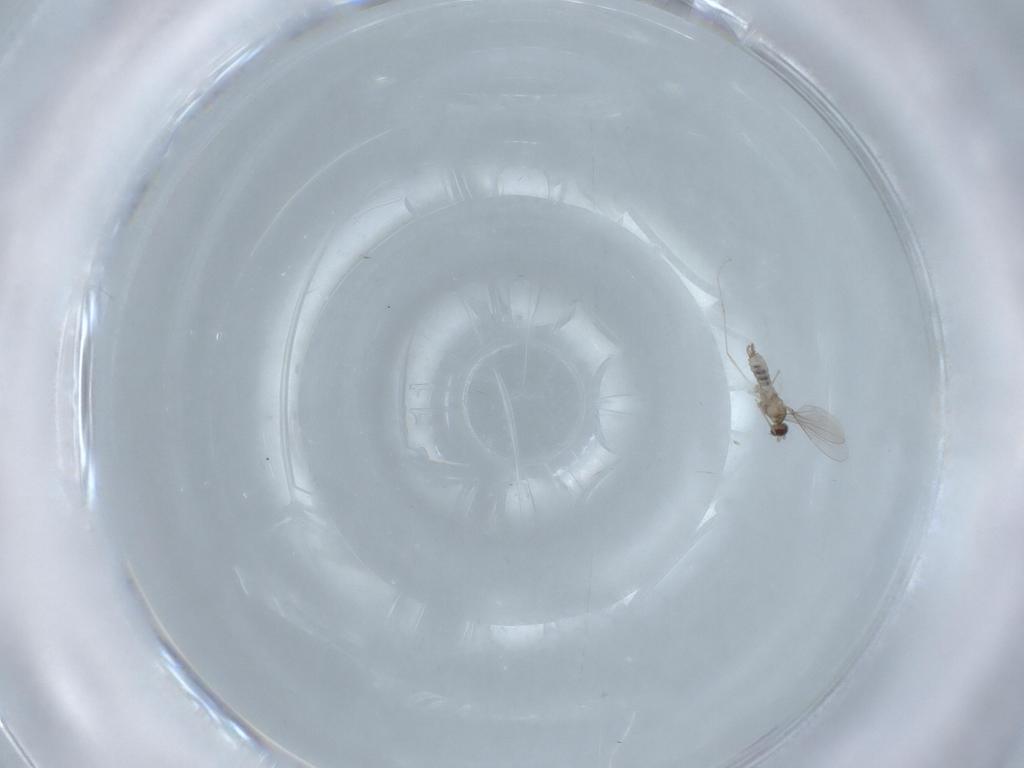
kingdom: Animalia
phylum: Arthropoda
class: Insecta
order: Diptera
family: Cecidomyiidae
